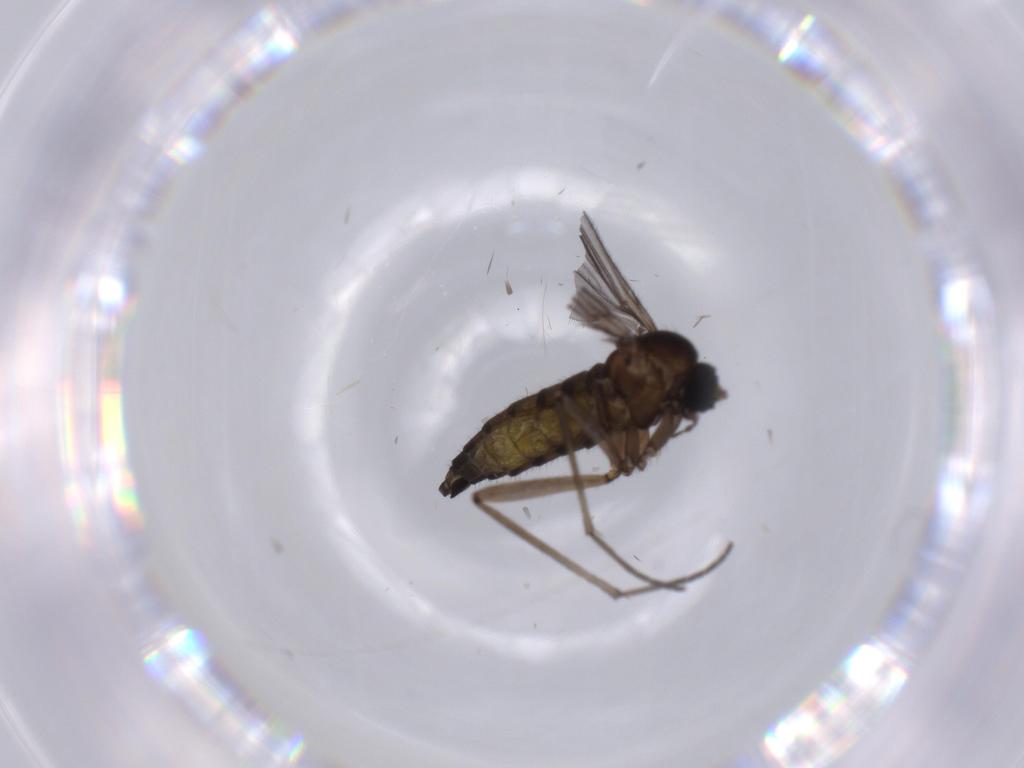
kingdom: Animalia
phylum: Arthropoda
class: Insecta
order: Diptera
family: Sciaridae
